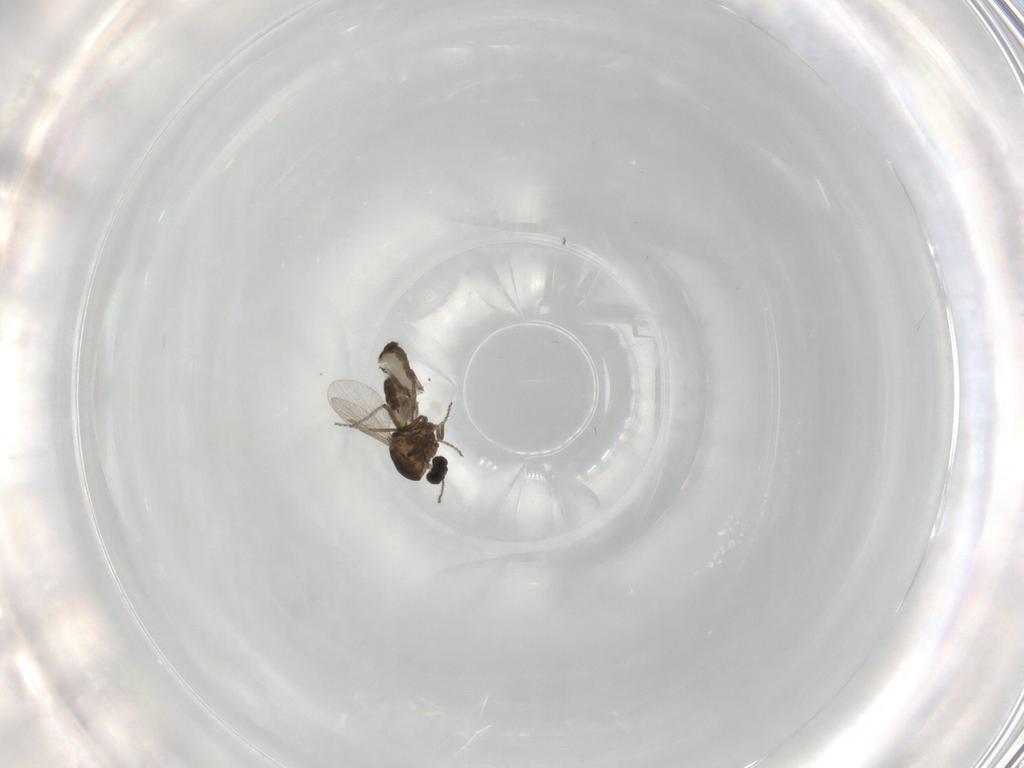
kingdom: Animalia
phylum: Arthropoda
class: Insecta
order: Diptera
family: Ceratopogonidae
